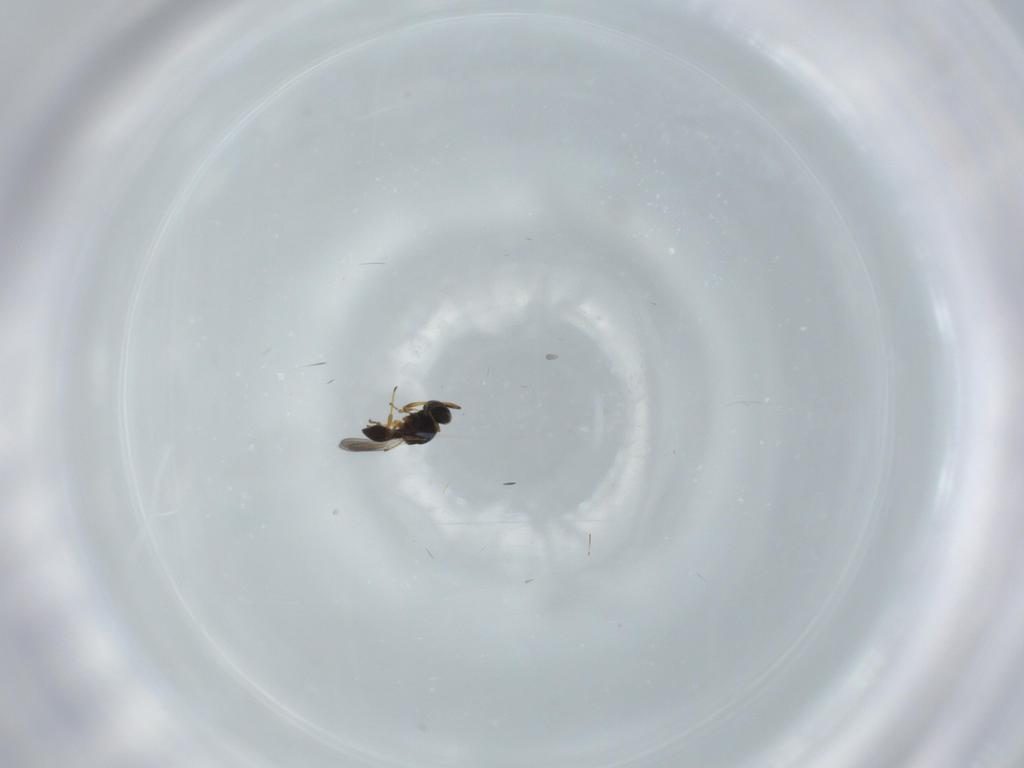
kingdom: Animalia
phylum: Arthropoda
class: Insecta
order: Hymenoptera
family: Platygastridae
